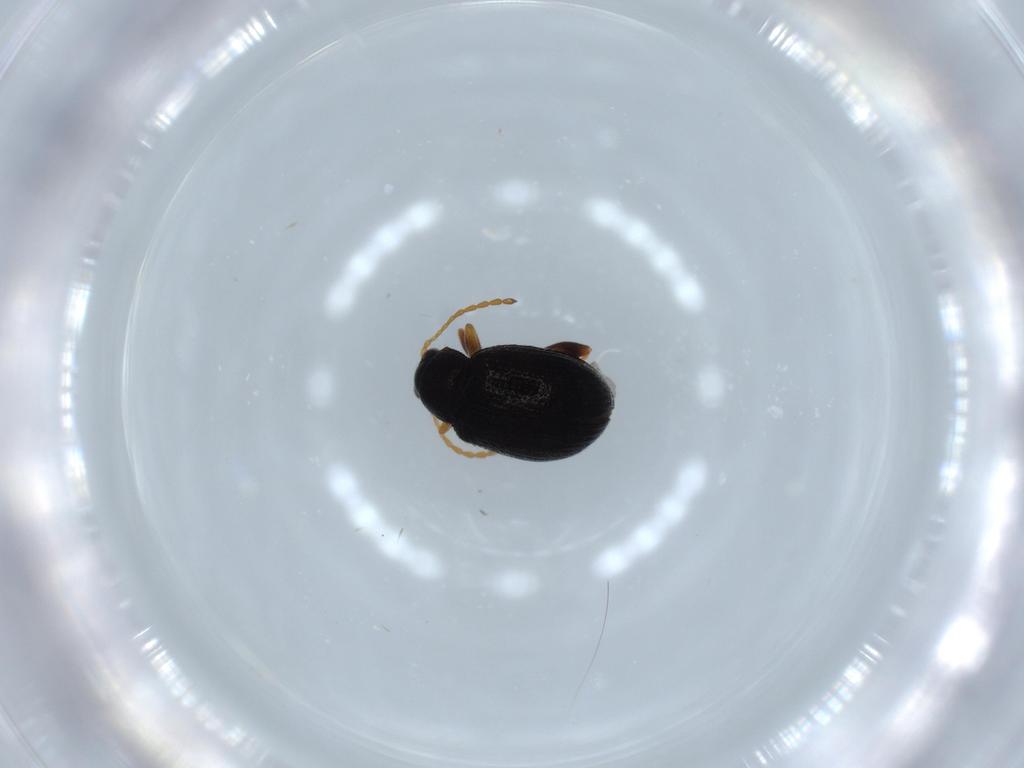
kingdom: Animalia
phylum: Arthropoda
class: Insecta
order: Coleoptera
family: Chrysomelidae
